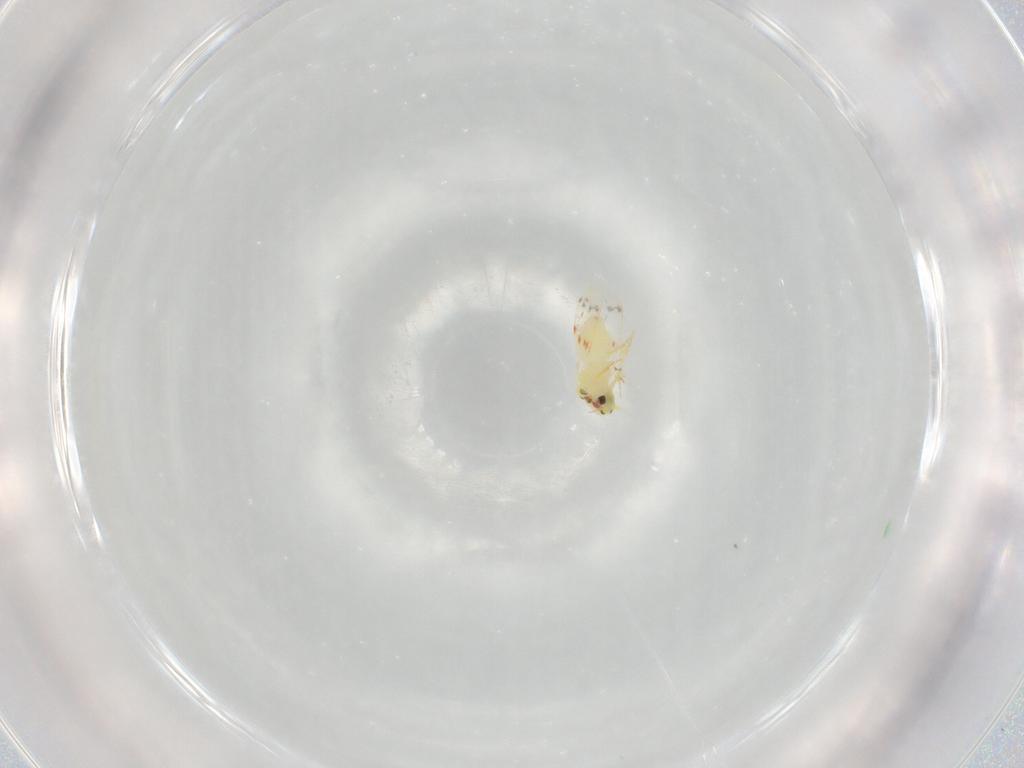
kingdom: Animalia
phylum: Arthropoda
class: Insecta
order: Hemiptera
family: Aleyrodidae
